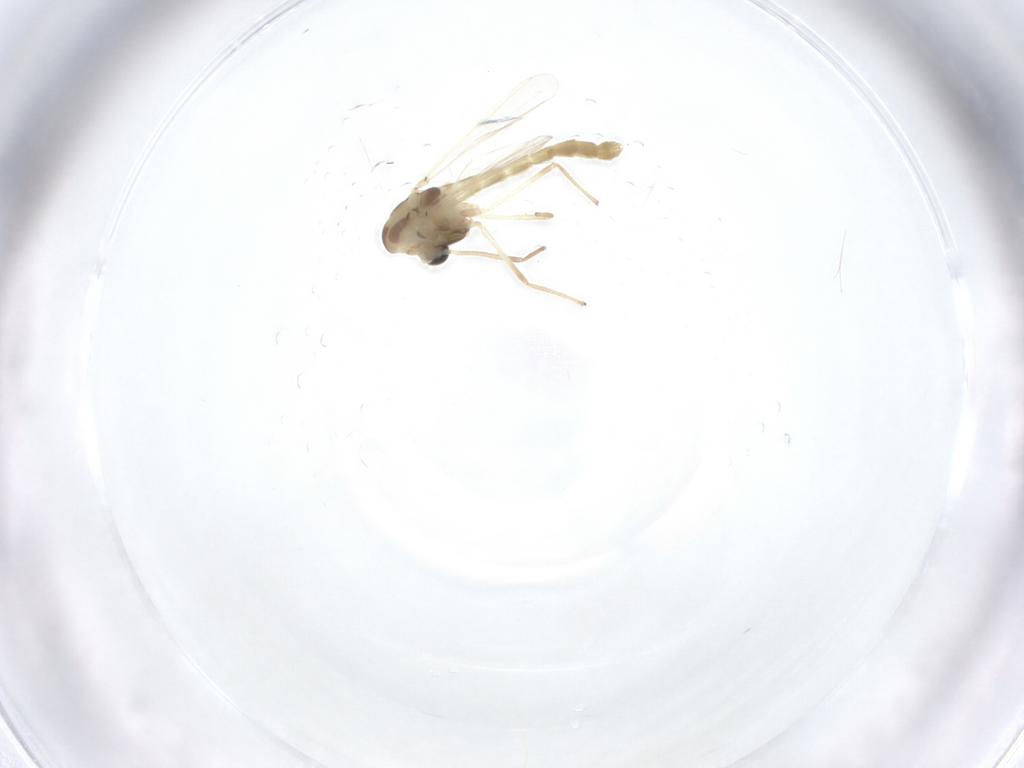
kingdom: Animalia
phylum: Arthropoda
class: Insecta
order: Diptera
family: Chironomidae
